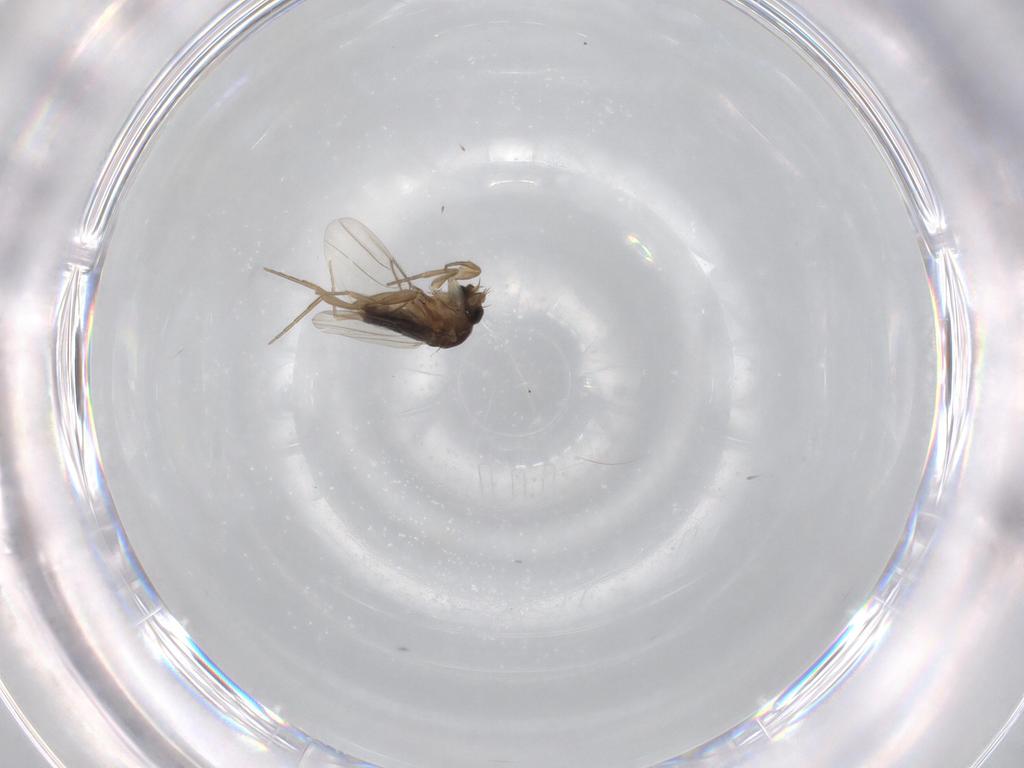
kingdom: Animalia
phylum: Arthropoda
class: Insecta
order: Diptera
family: Phoridae
